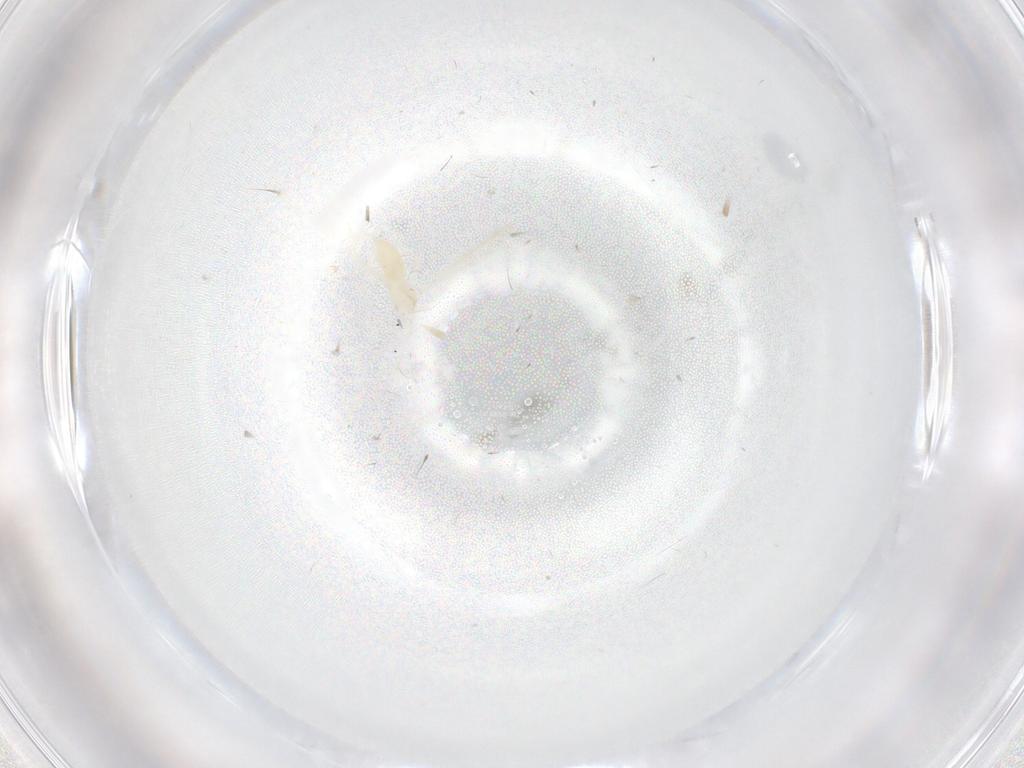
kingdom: Animalia
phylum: Arthropoda
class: Insecta
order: Diptera
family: Cecidomyiidae
